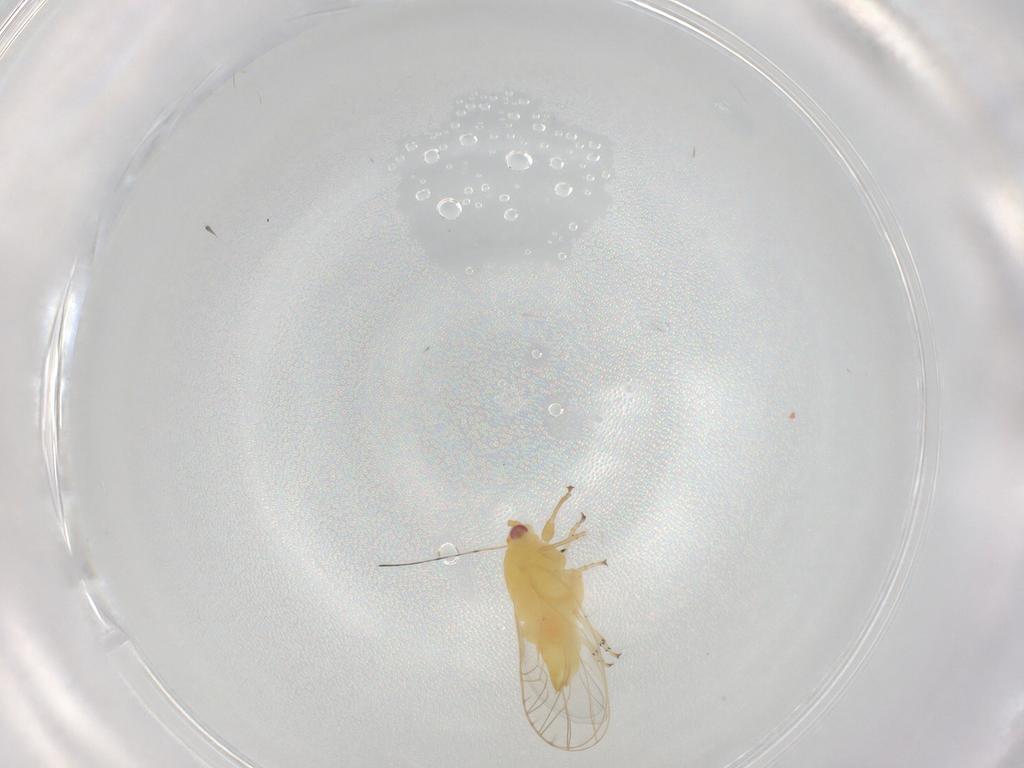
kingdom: Animalia
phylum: Arthropoda
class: Insecta
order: Hemiptera
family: Psyllidae
